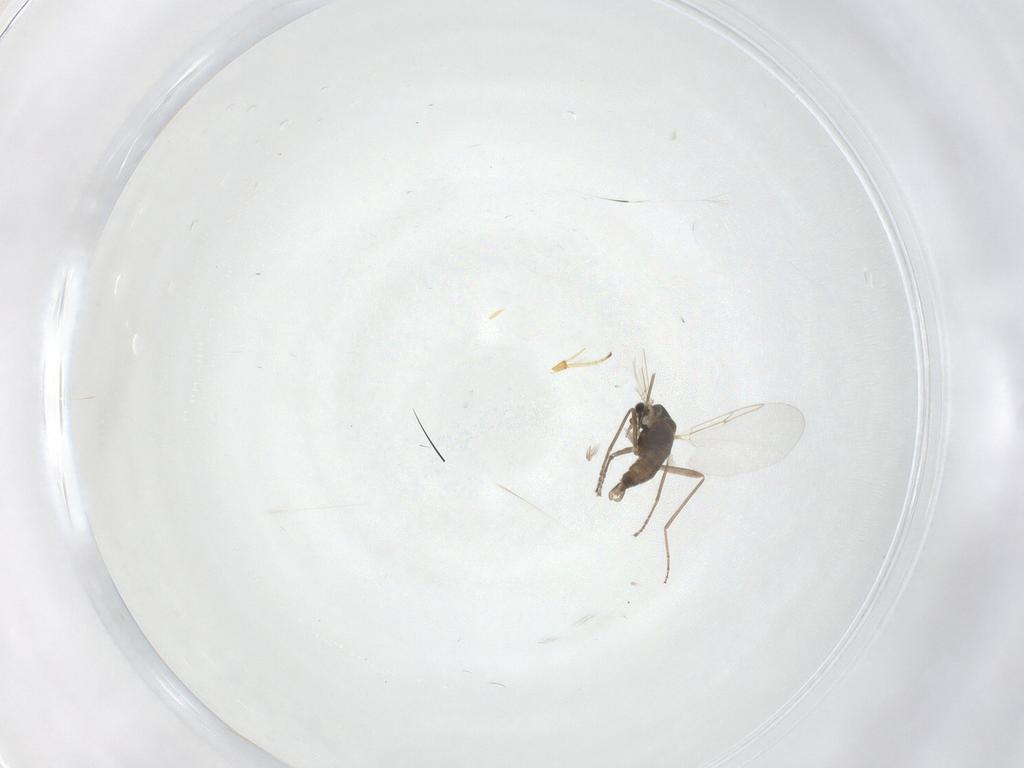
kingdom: Animalia
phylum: Arthropoda
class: Insecta
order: Diptera
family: Cecidomyiidae
